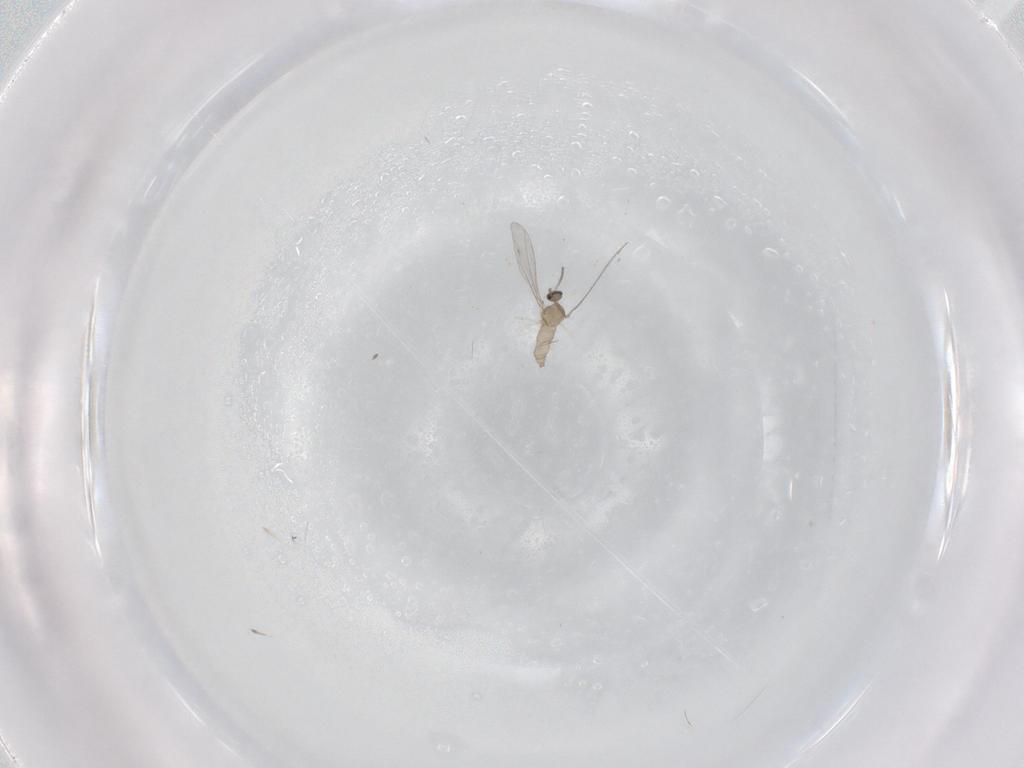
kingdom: Animalia
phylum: Arthropoda
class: Insecta
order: Diptera
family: Cecidomyiidae
